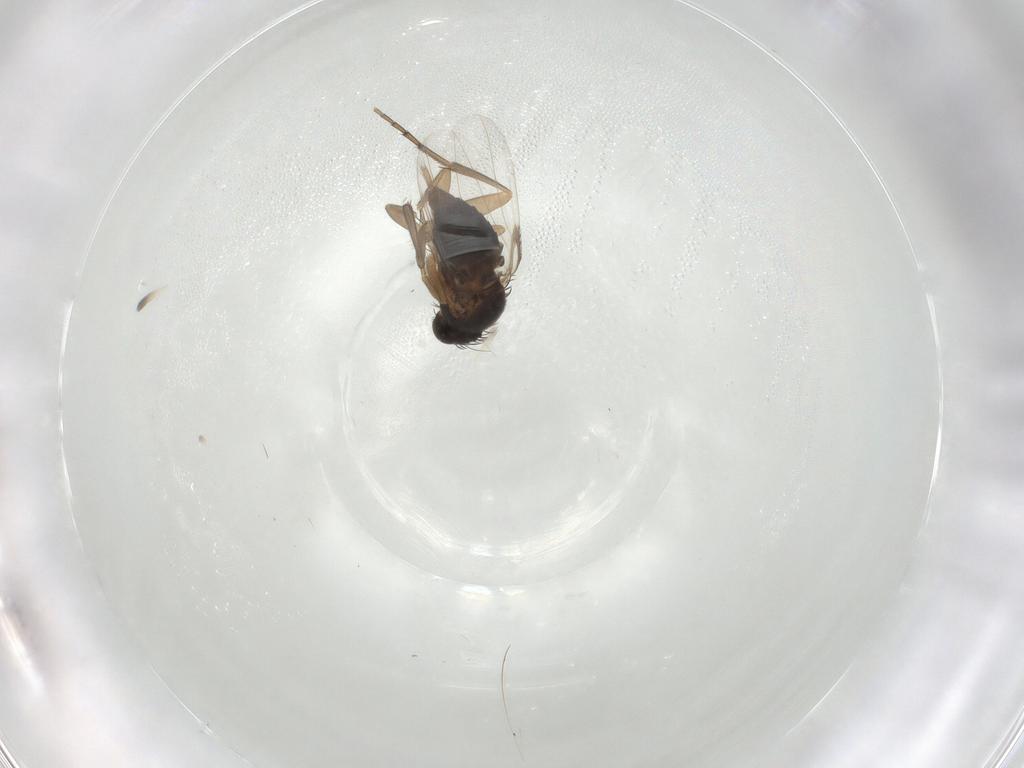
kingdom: Animalia
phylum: Arthropoda
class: Insecta
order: Diptera
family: Phoridae
